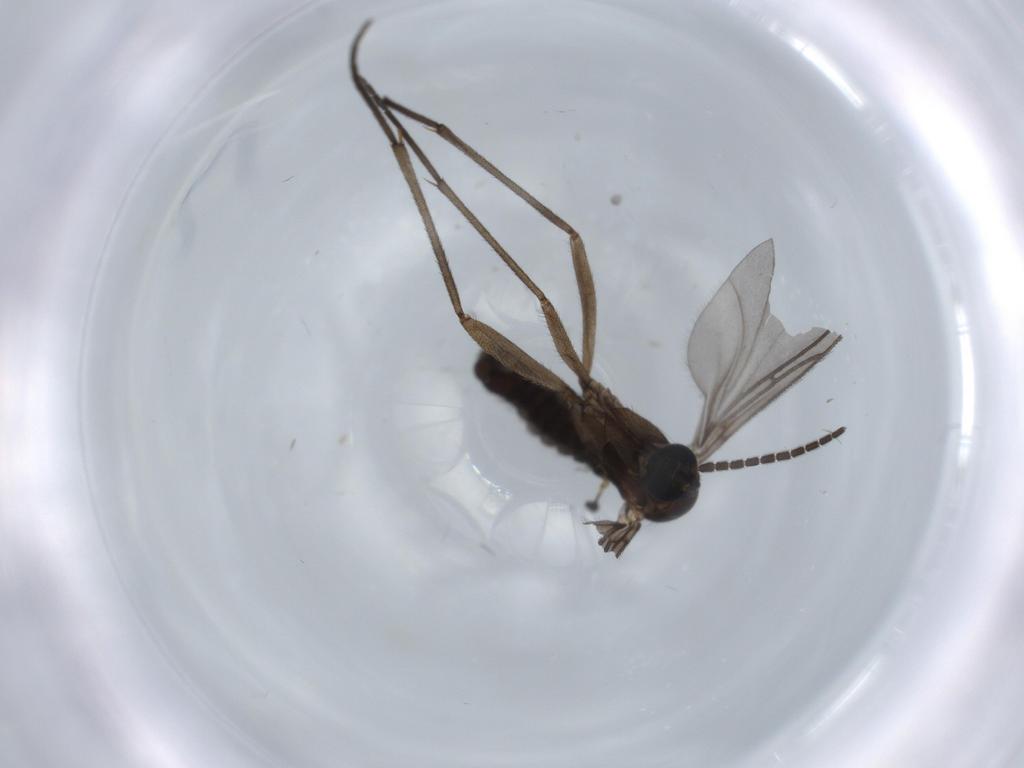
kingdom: Animalia
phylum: Arthropoda
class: Insecta
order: Diptera
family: Sciaridae
